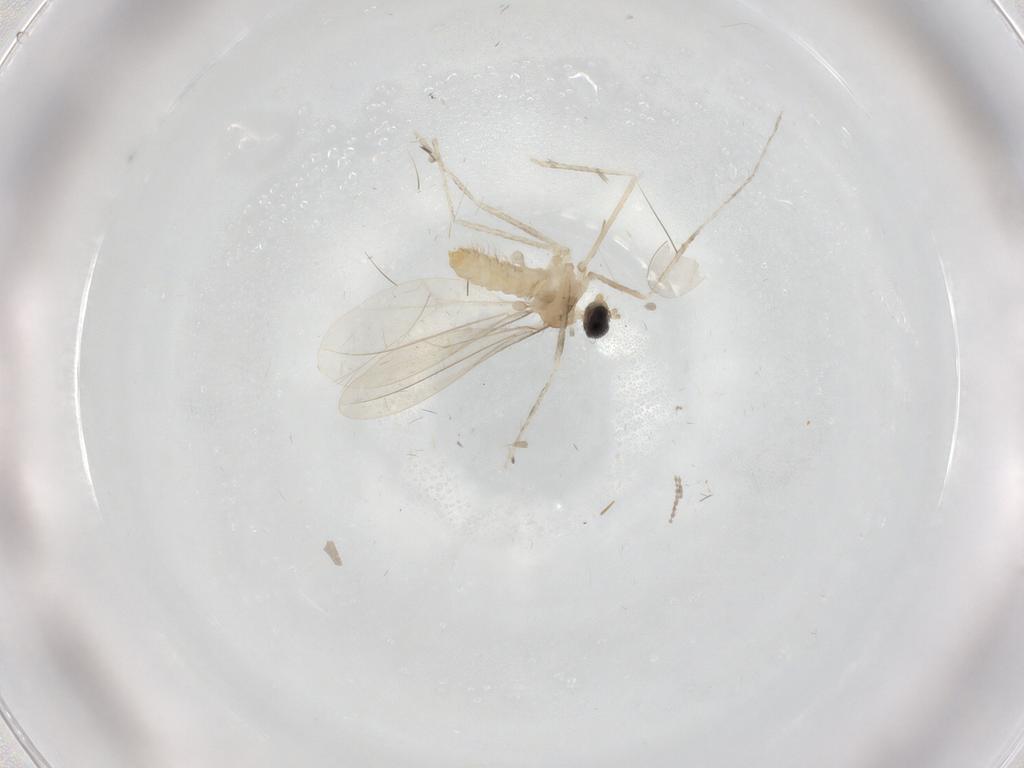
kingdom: Animalia
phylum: Arthropoda
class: Insecta
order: Diptera
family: Cecidomyiidae
